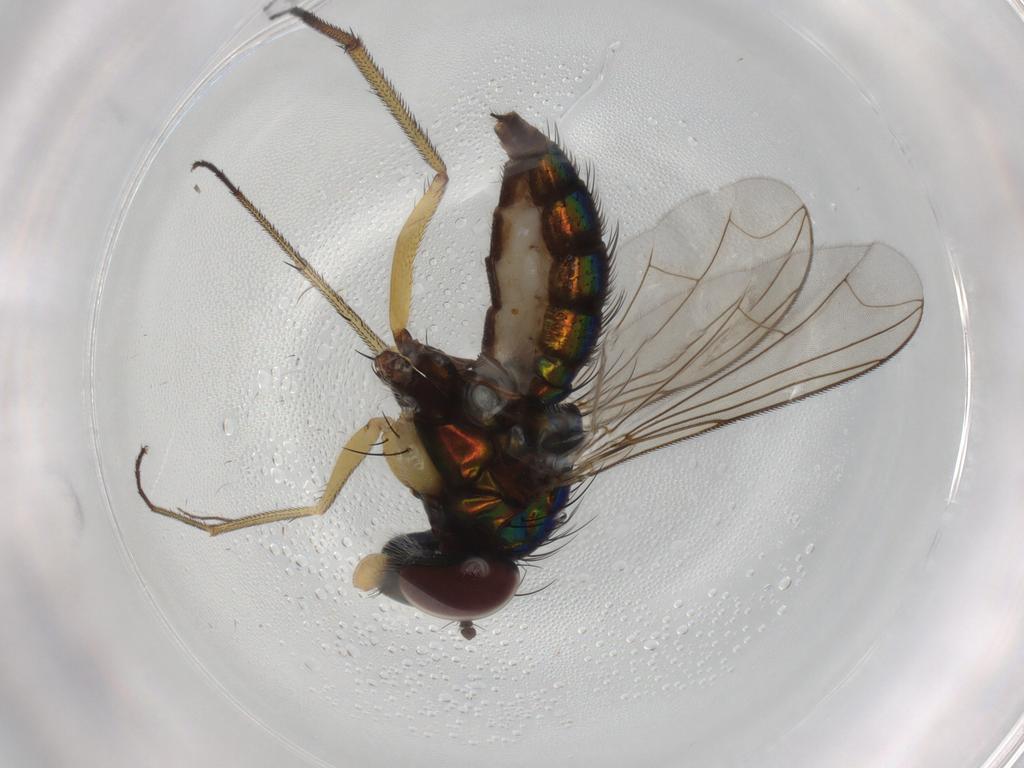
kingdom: Animalia
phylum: Arthropoda
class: Insecta
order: Diptera
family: Dolichopodidae
